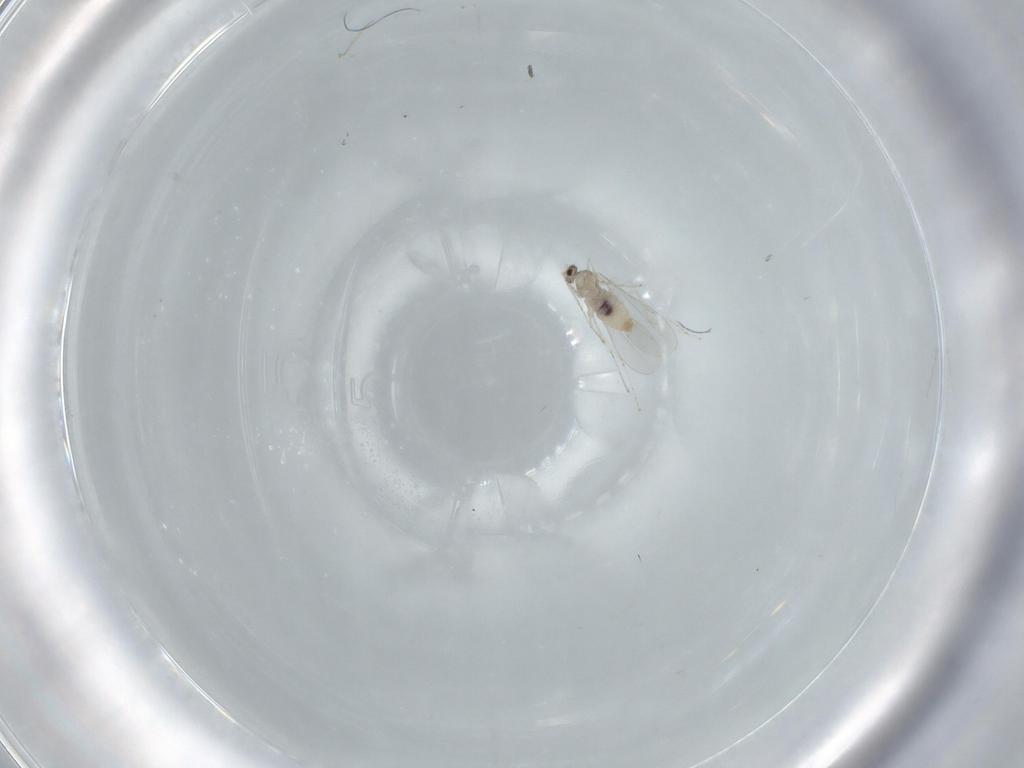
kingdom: Animalia
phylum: Arthropoda
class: Insecta
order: Diptera
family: Cecidomyiidae
